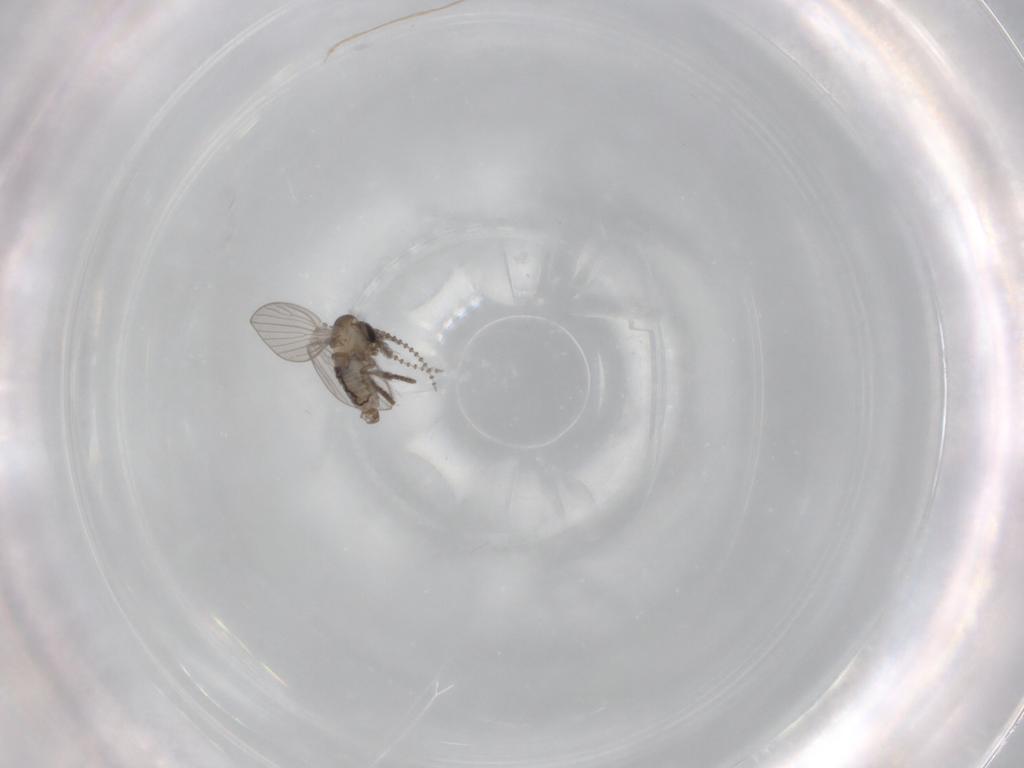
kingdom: Animalia
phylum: Arthropoda
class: Insecta
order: Diptera
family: Psychodidae
